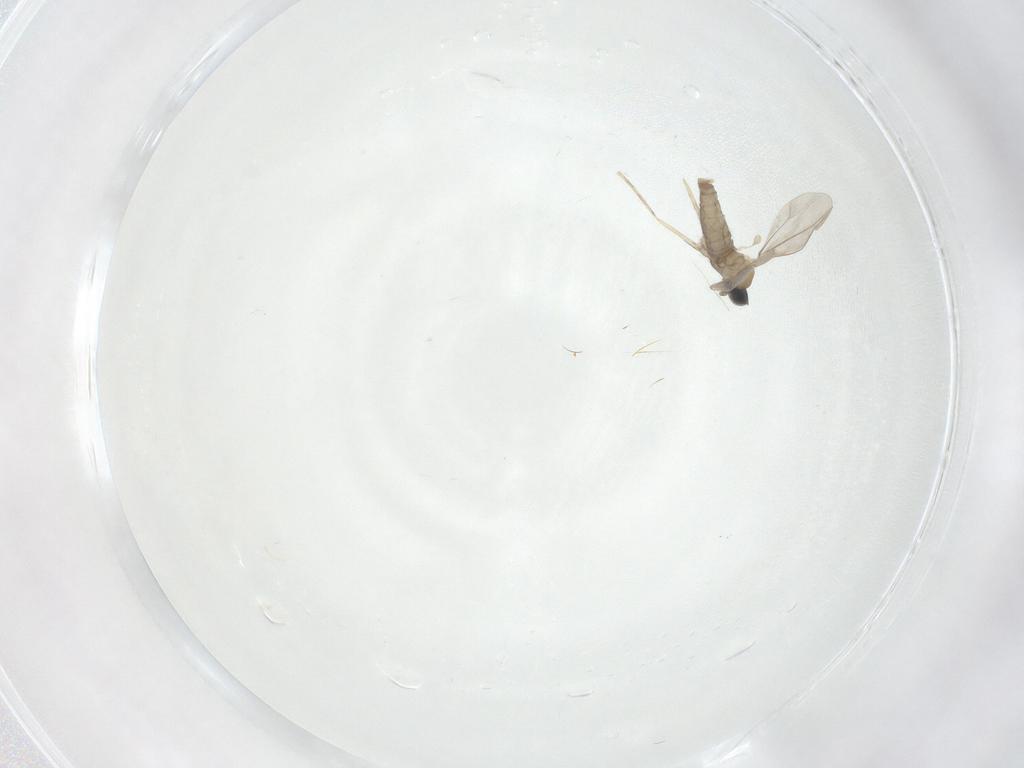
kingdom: Animalia
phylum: Arthropoda
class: Insecta
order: Diptera
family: Cecidomyiidae
